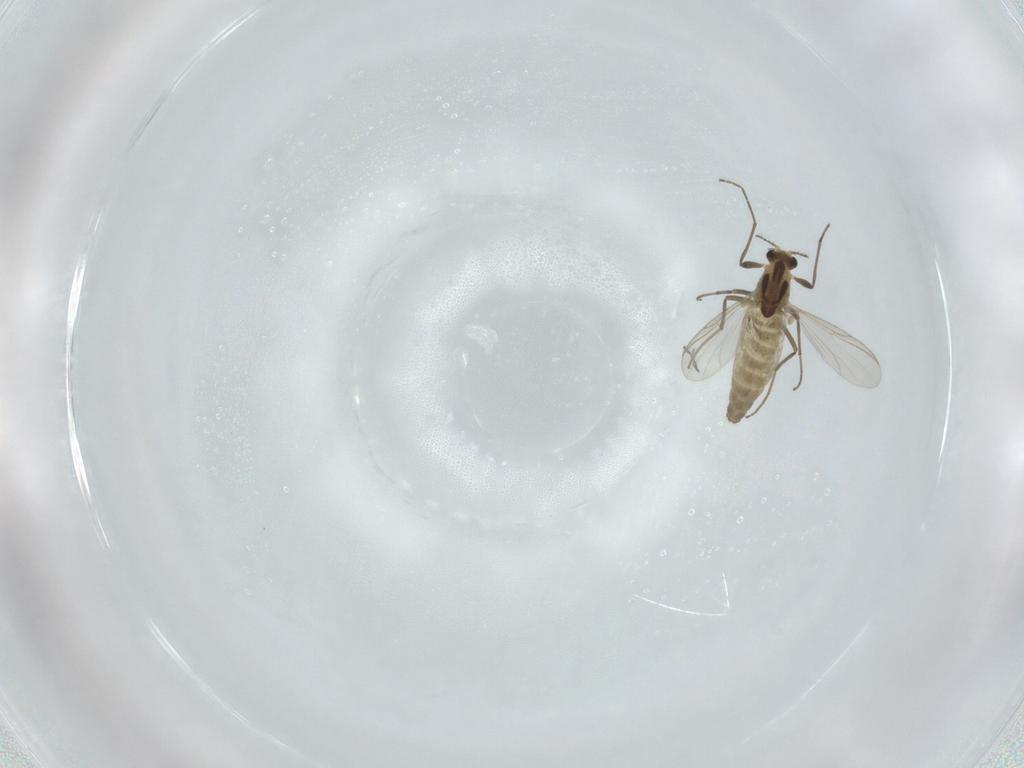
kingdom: Animalia
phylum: Arthropoda
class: Insecta
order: Diptera
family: Chironomidae
